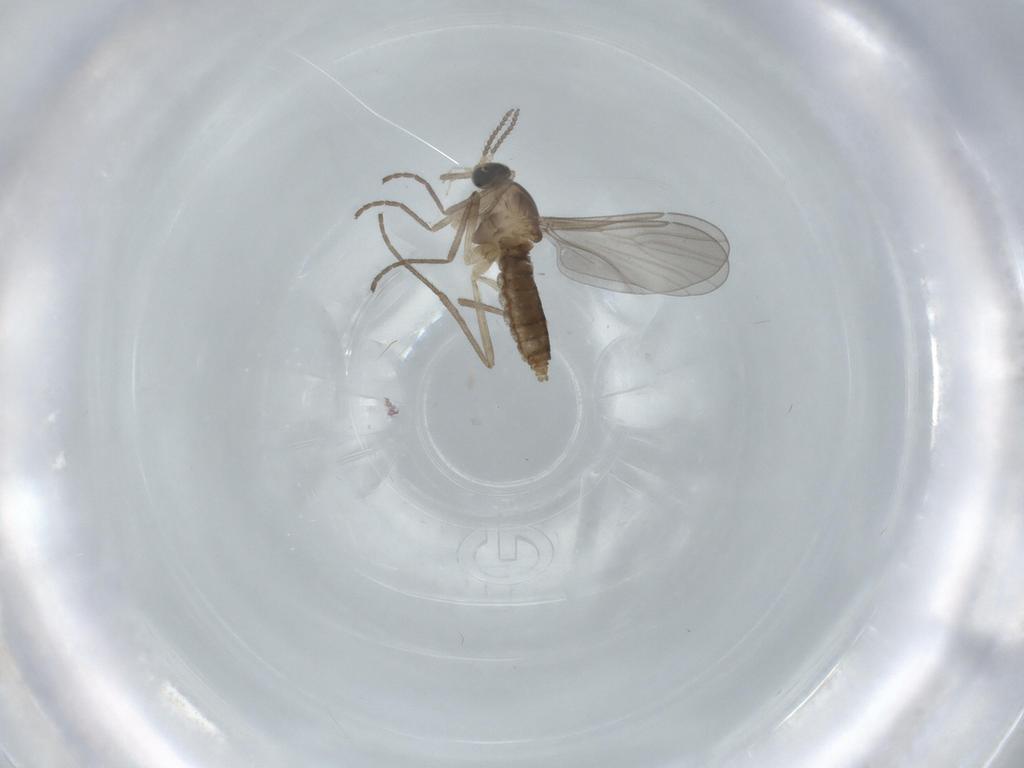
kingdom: Animalia
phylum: Arthropoda
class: Insecta
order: Diptera
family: Cecidomyiidae
